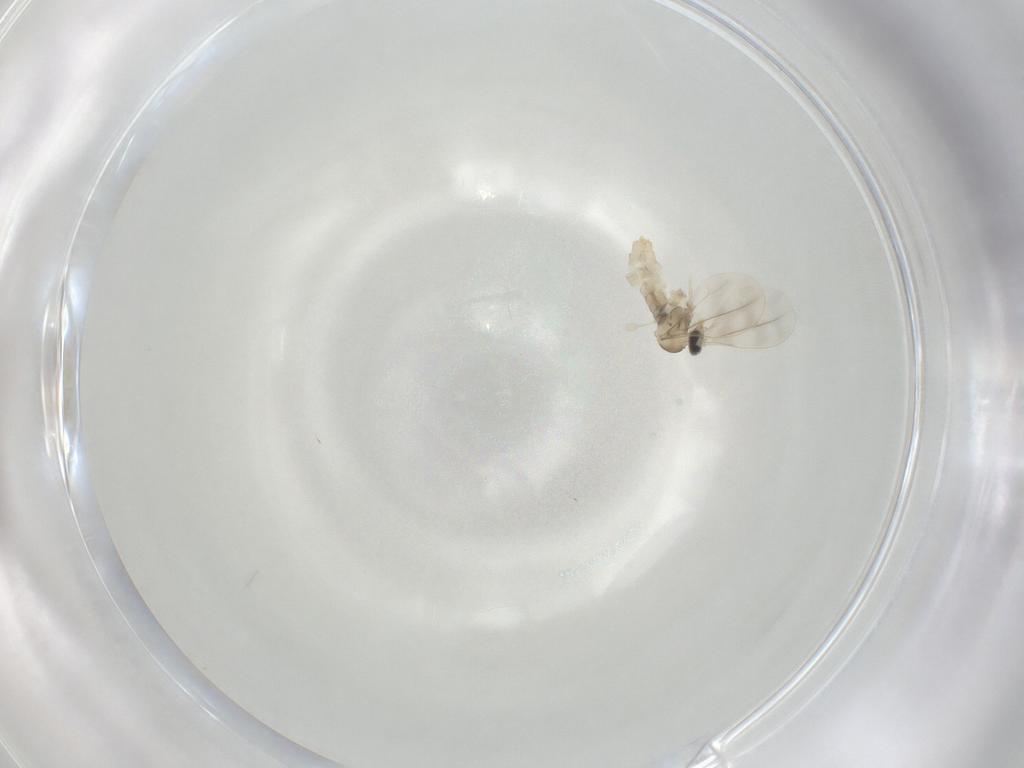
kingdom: Animalia
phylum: Arthropoda
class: Insecta
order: Diptera
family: Cecidomyiidae
